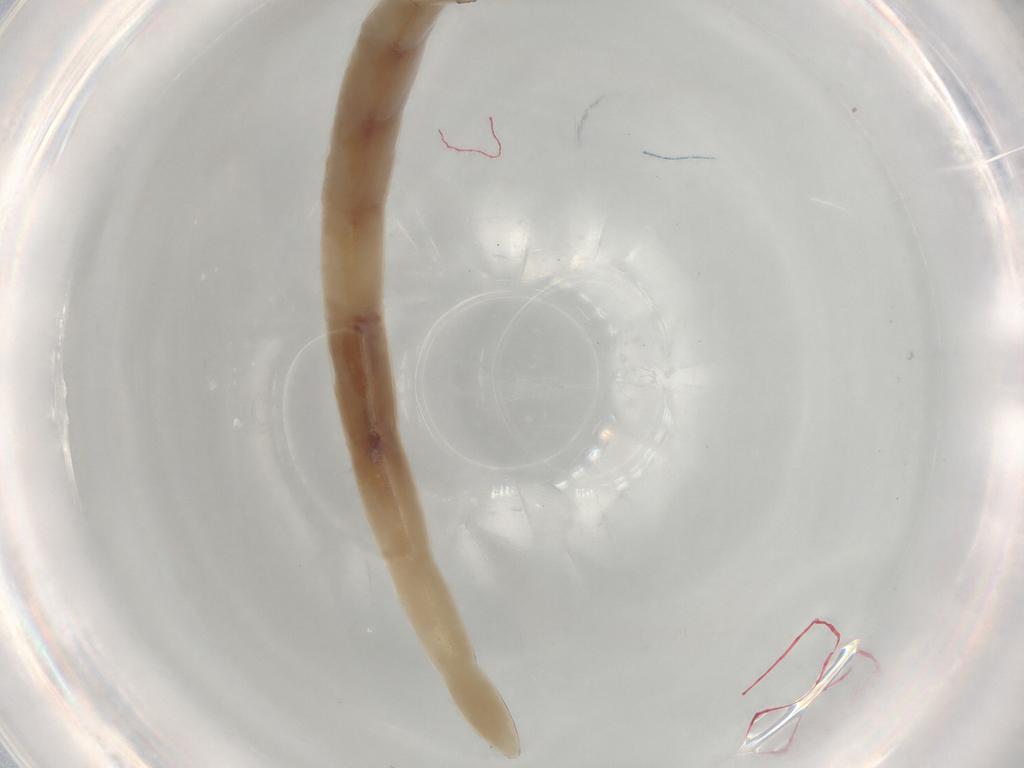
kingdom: Animalia
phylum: Arthropoda
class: Insecta
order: Diptera
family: Ceratopogonidae
